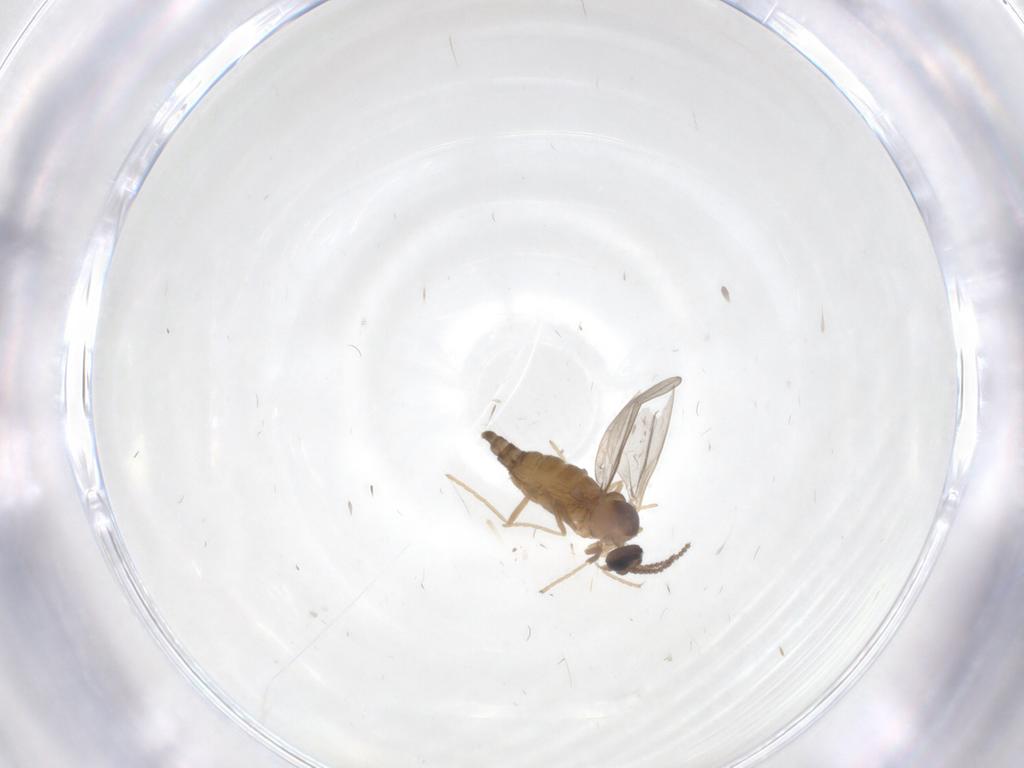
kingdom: Animalia
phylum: Arthropoda
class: Insecta
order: Diptera
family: Cecidomyiidae
